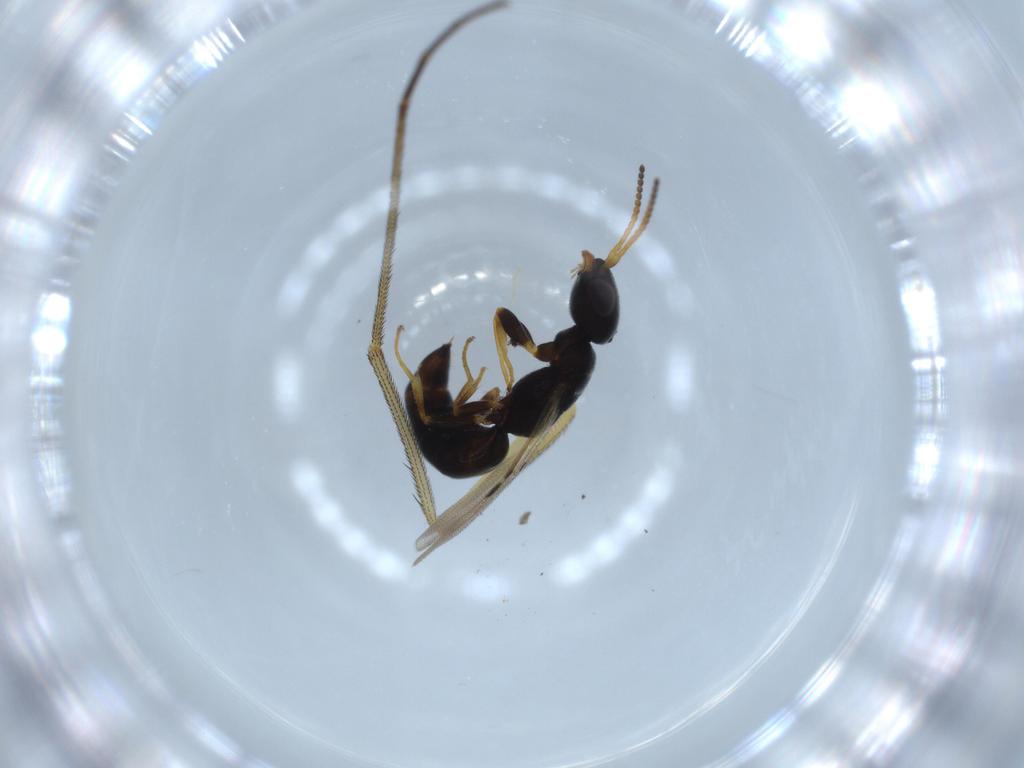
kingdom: Animalia
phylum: Arthropoda
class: Insecta
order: Hymenoptera
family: Bethylidae
